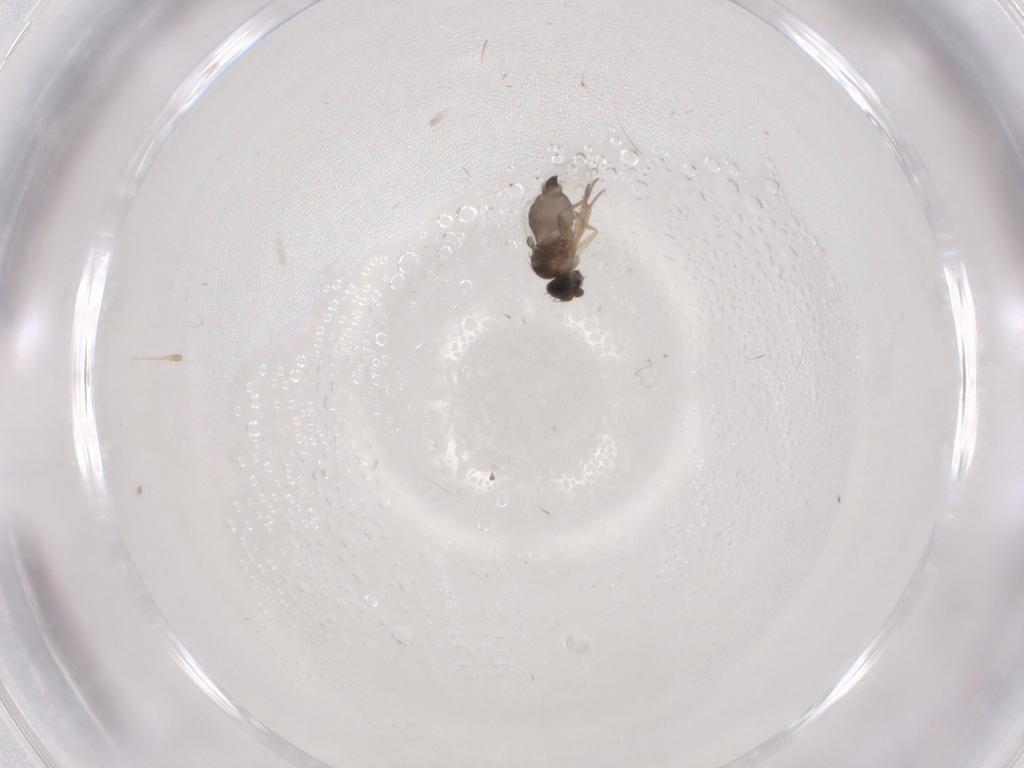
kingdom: Animalia
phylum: Arthropoda
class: Insecta
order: Diptera
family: Phoridae
